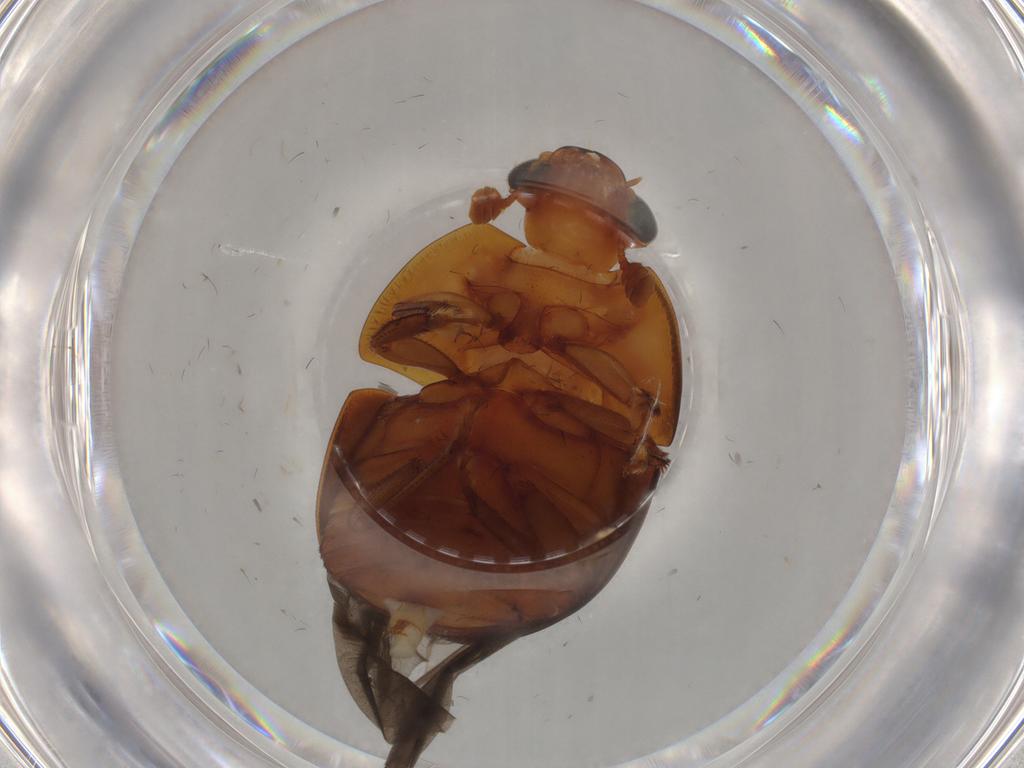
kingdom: Animalia
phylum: Arthropoda
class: Insecta
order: Coleoptera
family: Nitidulidae
